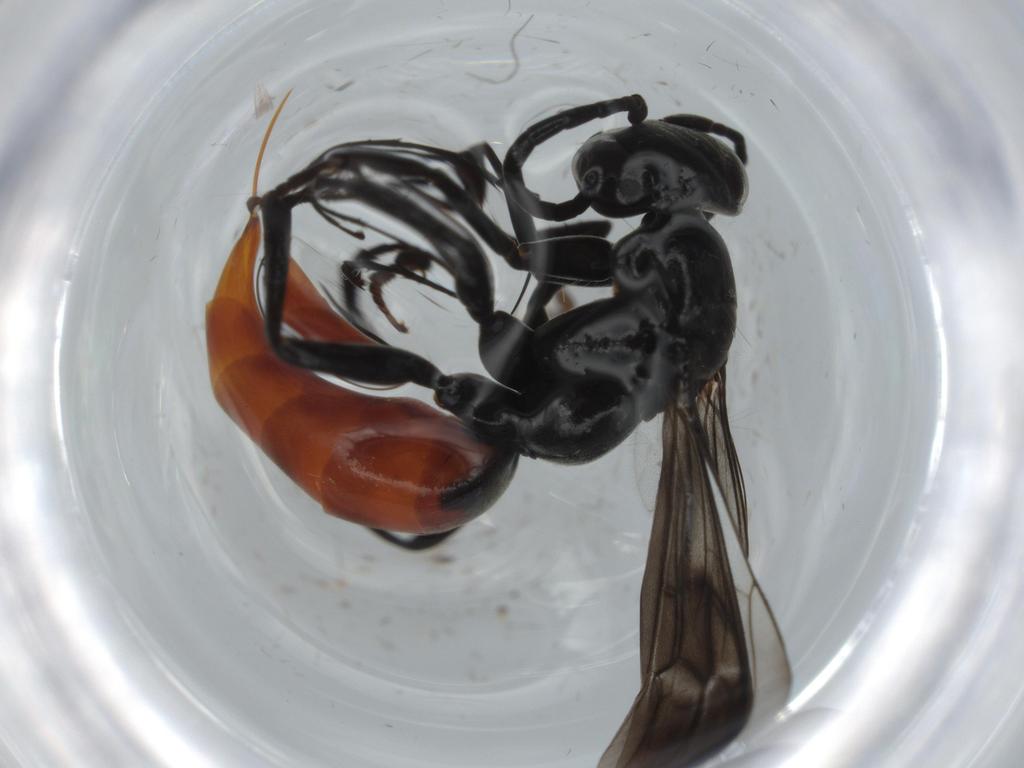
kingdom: Animalia
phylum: Arthropoda
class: Insecta
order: Hymenoptera
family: Pompilidae
